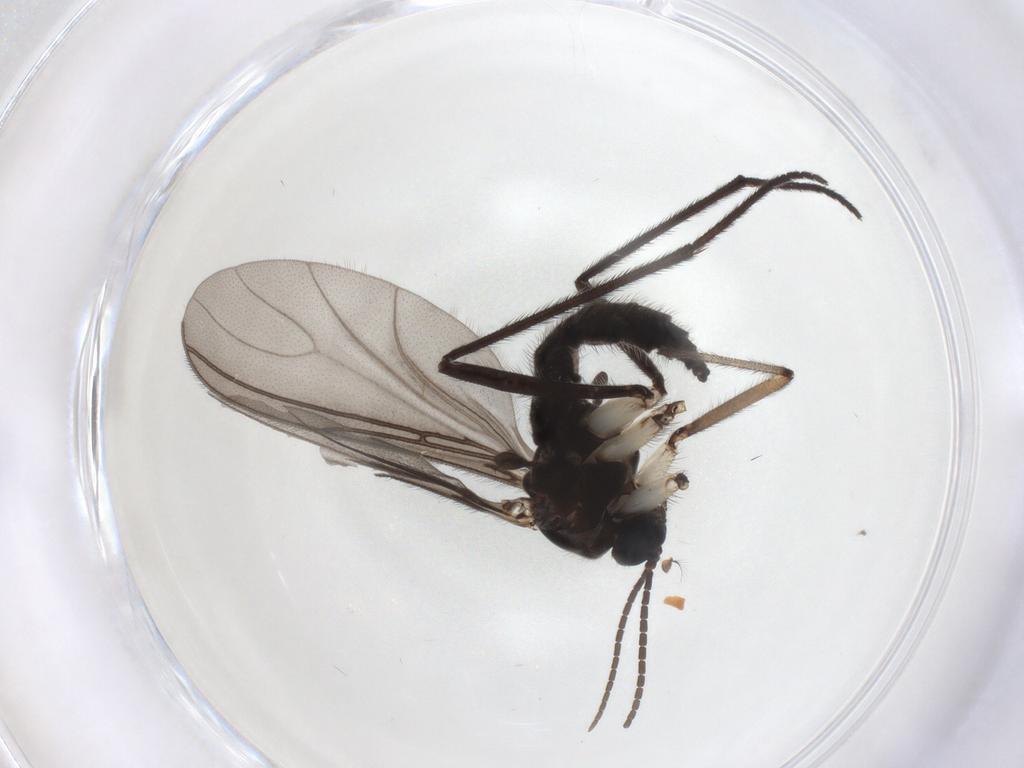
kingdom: Animalia
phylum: Arthropoda
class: Insecta
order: Diptera
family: Sciaridae
